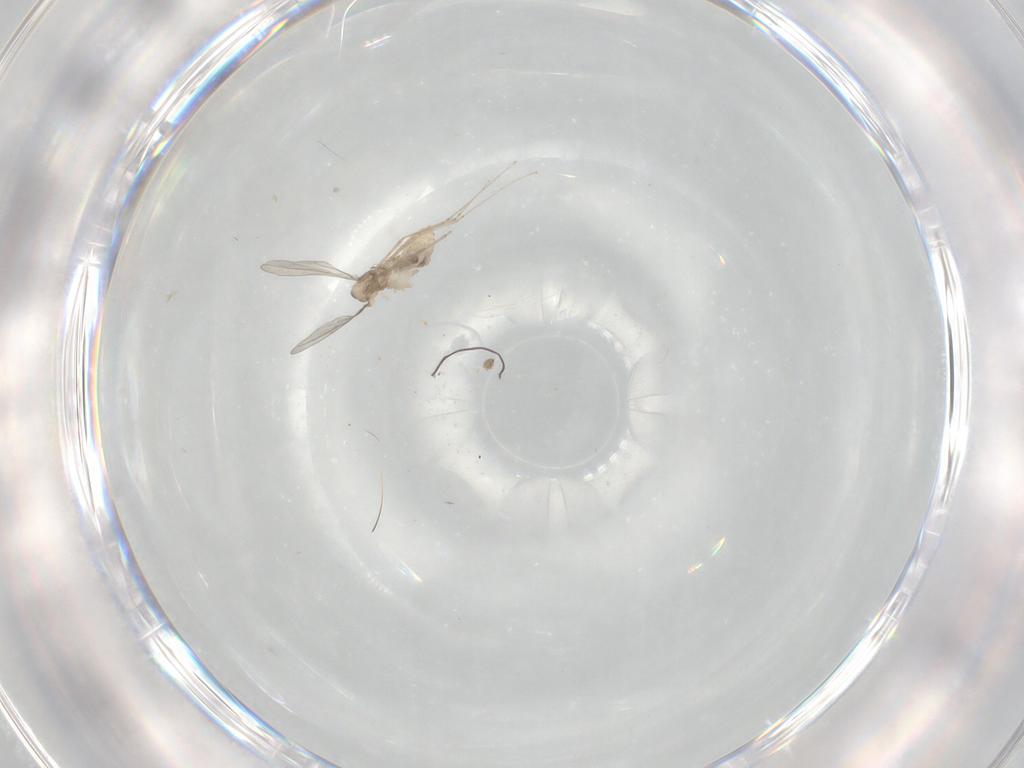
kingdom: Animalia
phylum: Arthropoda
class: Insecta
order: Diptera
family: Cecidomyiidae
